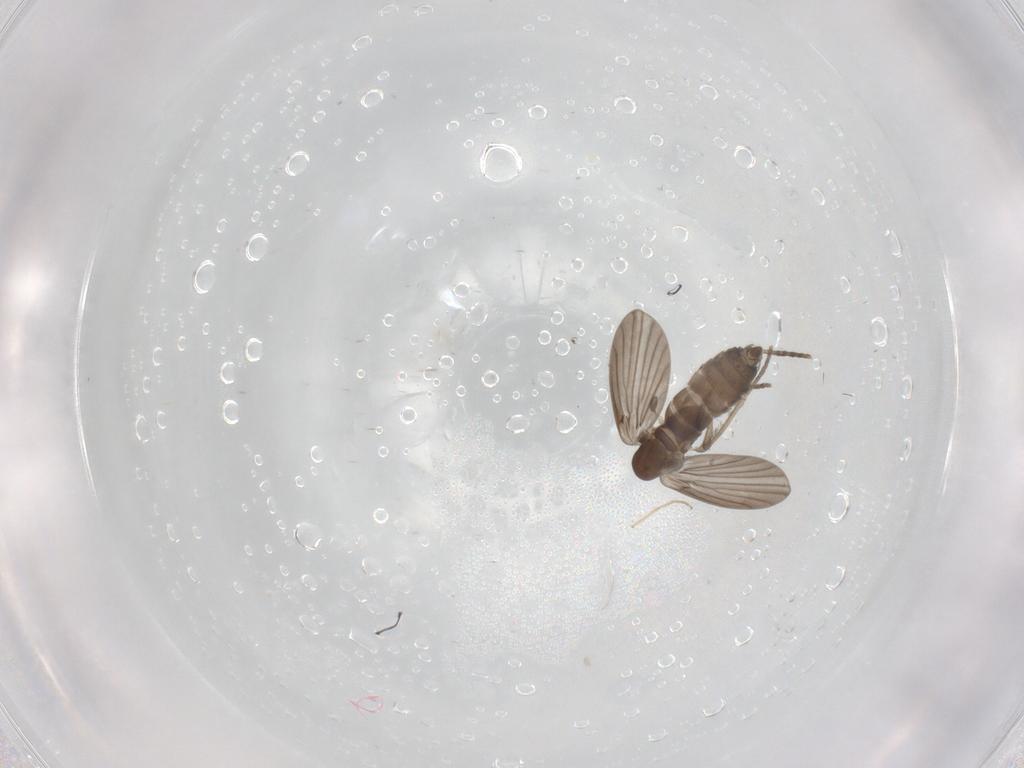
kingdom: Animalia
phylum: Arthropoda
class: Insecta
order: Diptera
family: Chironomidae
